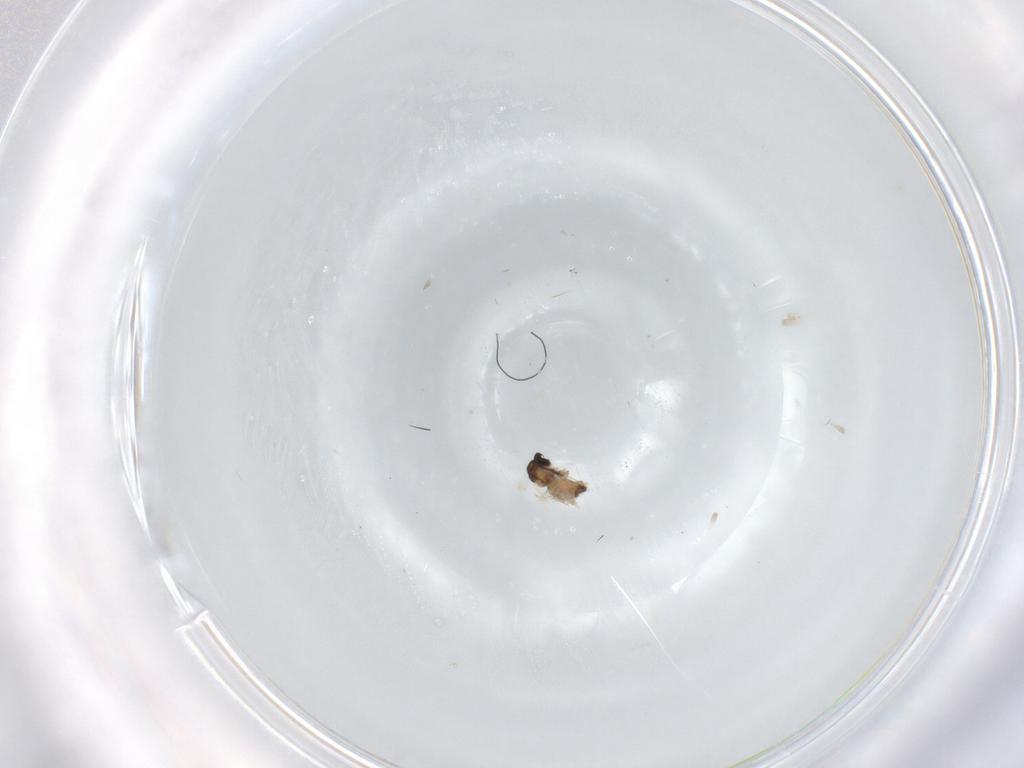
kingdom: Animalia
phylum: Arthropoda
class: Insecta
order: Diptera
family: Cecidomyiidae
